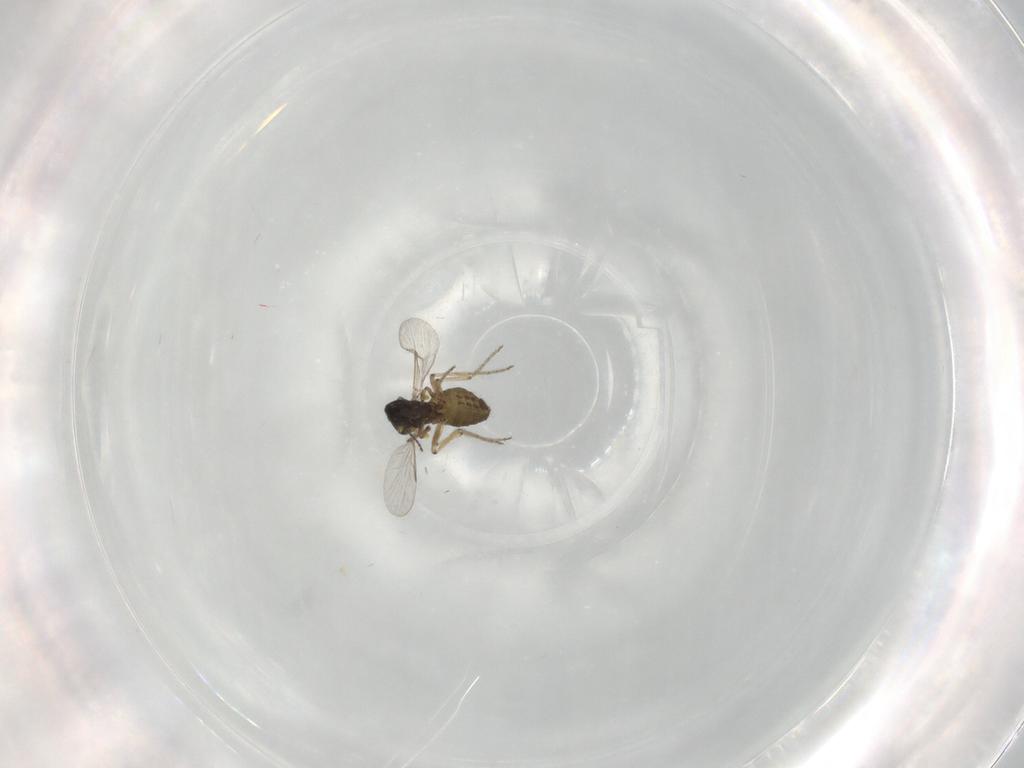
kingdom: Animalia
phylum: Arthropoda
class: Insecta
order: Diptera
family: Ceratopogonidae
